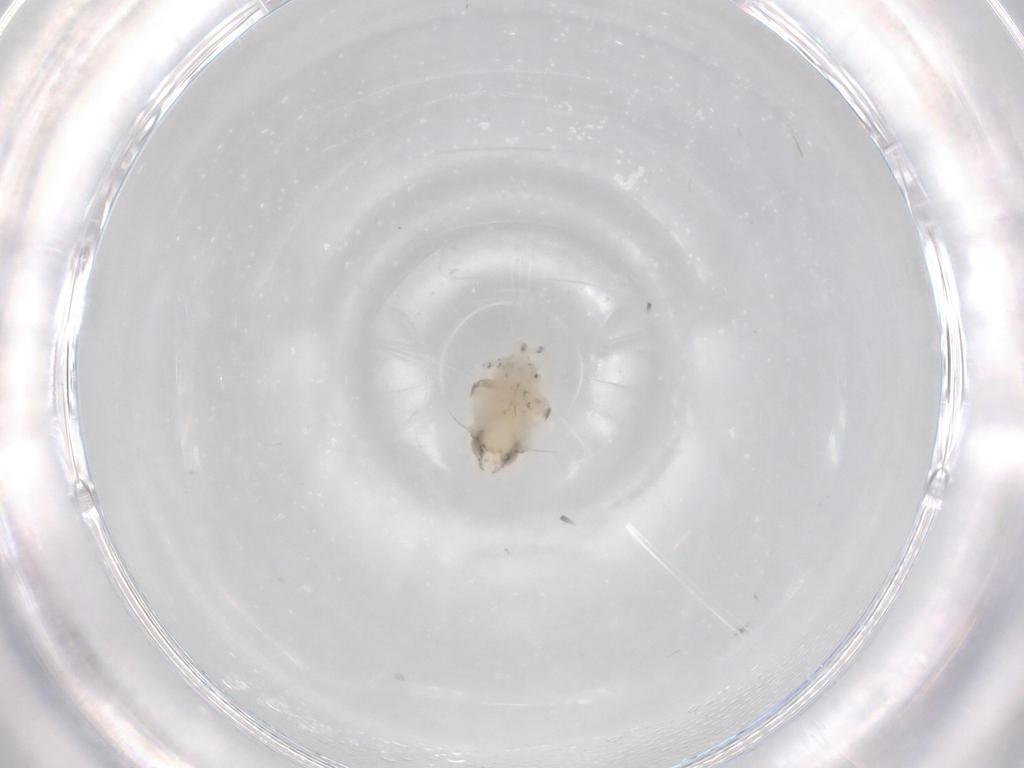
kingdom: Animalia
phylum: Arthropoda
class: Insecta
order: Hemiptera
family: Nogodinidae
